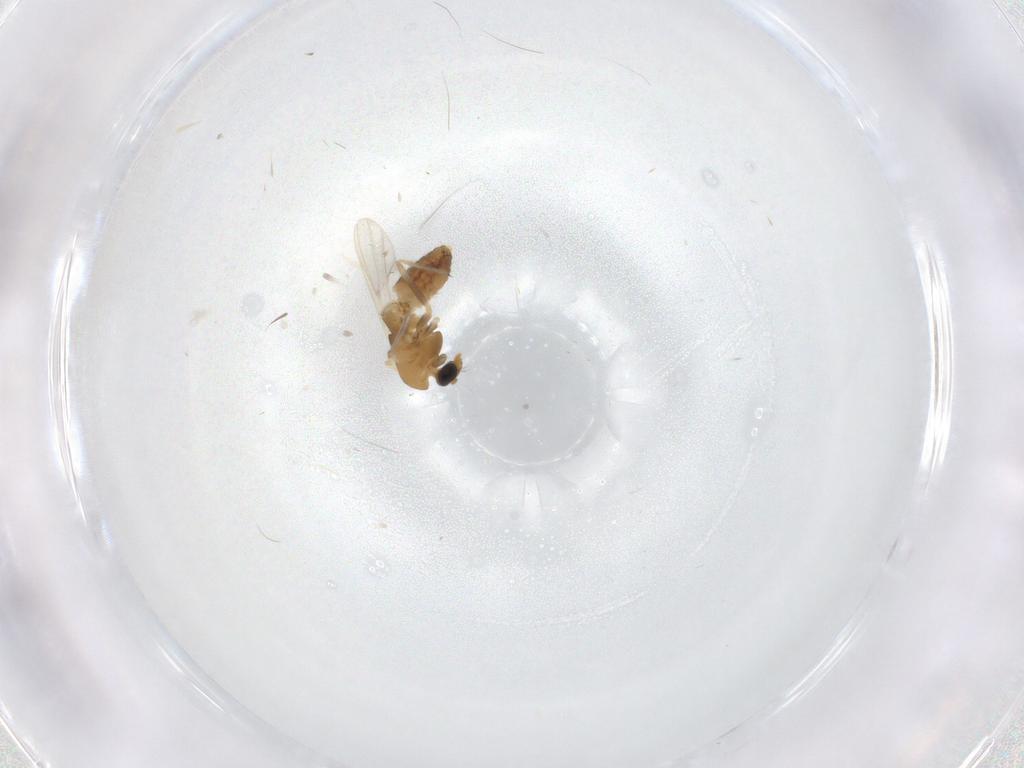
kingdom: Animalia
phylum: Arthropoda
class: Insecta
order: Diptera
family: Chironomidae
